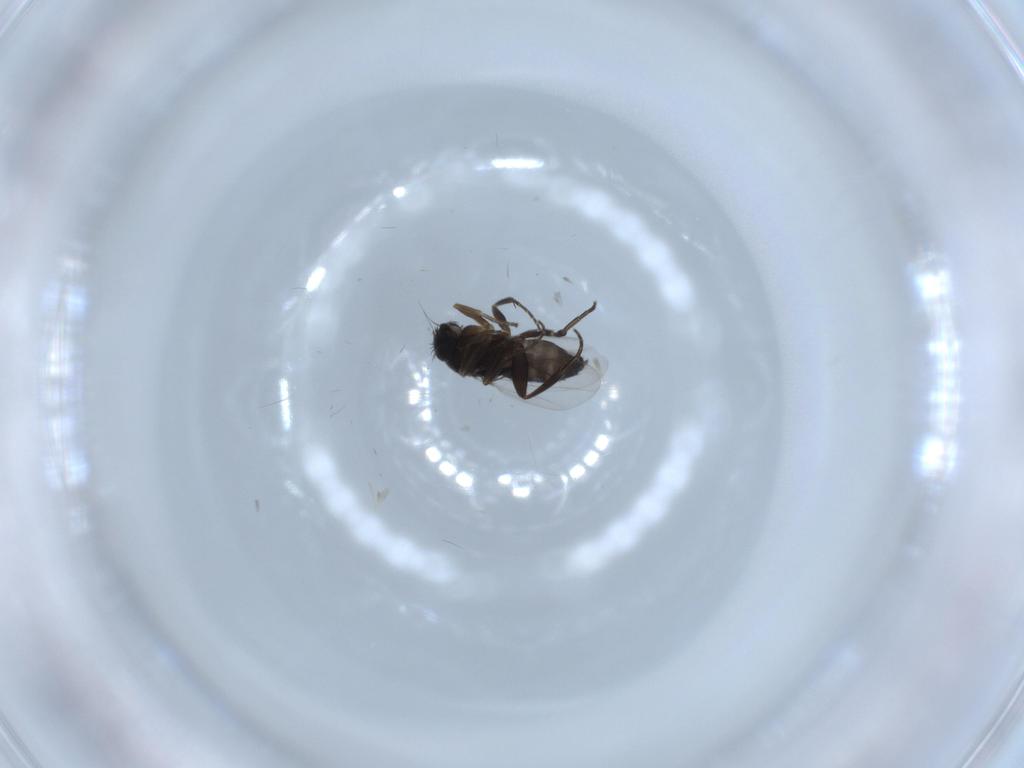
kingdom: Animalia
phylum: Arthropoda
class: Insecta
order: Diptera
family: Phoridae
